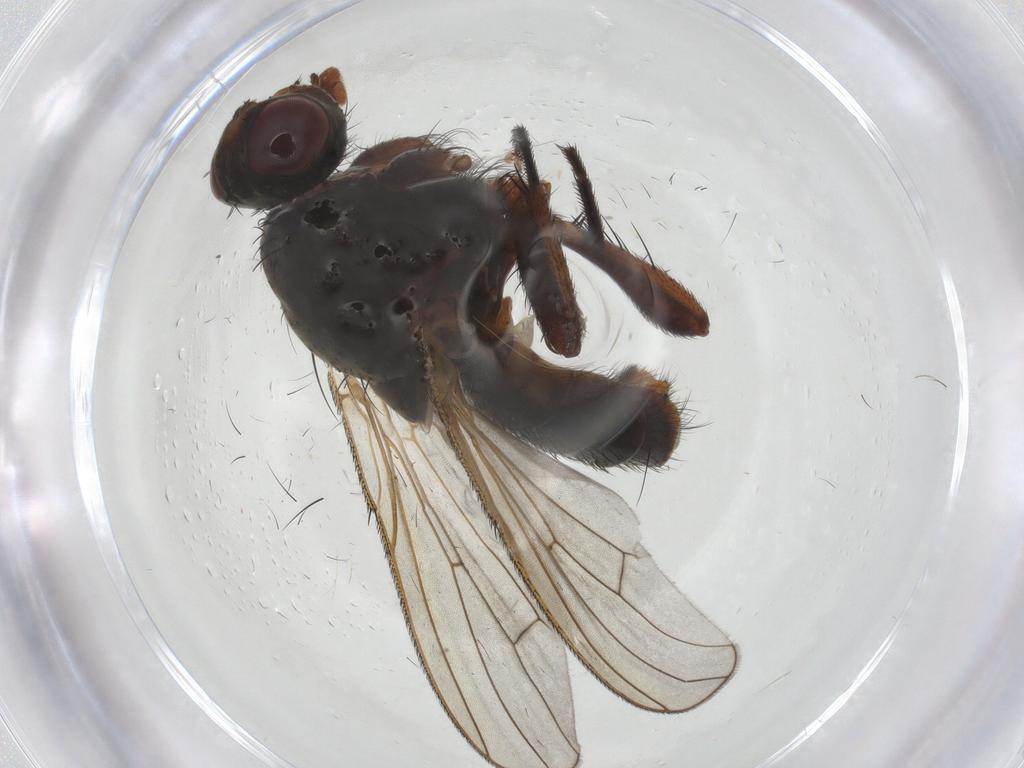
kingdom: Animalia
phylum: Arthropoda
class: Insecta
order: Diptera
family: Anthomyiidae
